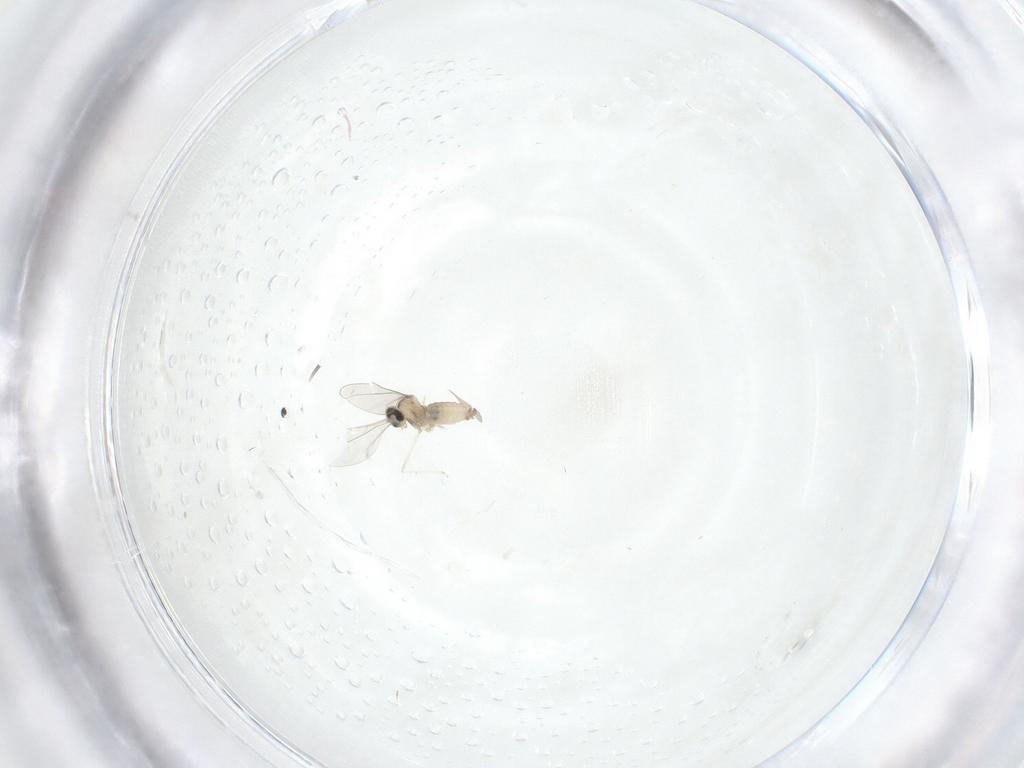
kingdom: Animalia
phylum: Arthropoda
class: Insecta
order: Diptera
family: Cecidomyiidae
